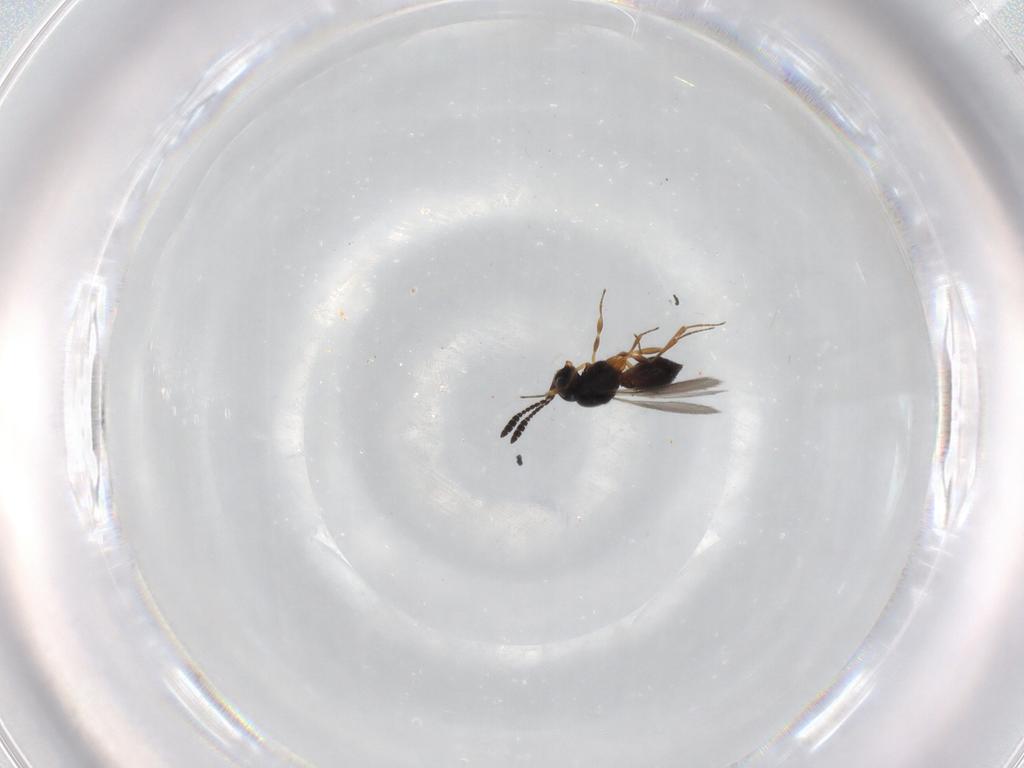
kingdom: Animalia
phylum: Arthropoda
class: Insecta
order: Hymenoptera
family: Scelionidae
